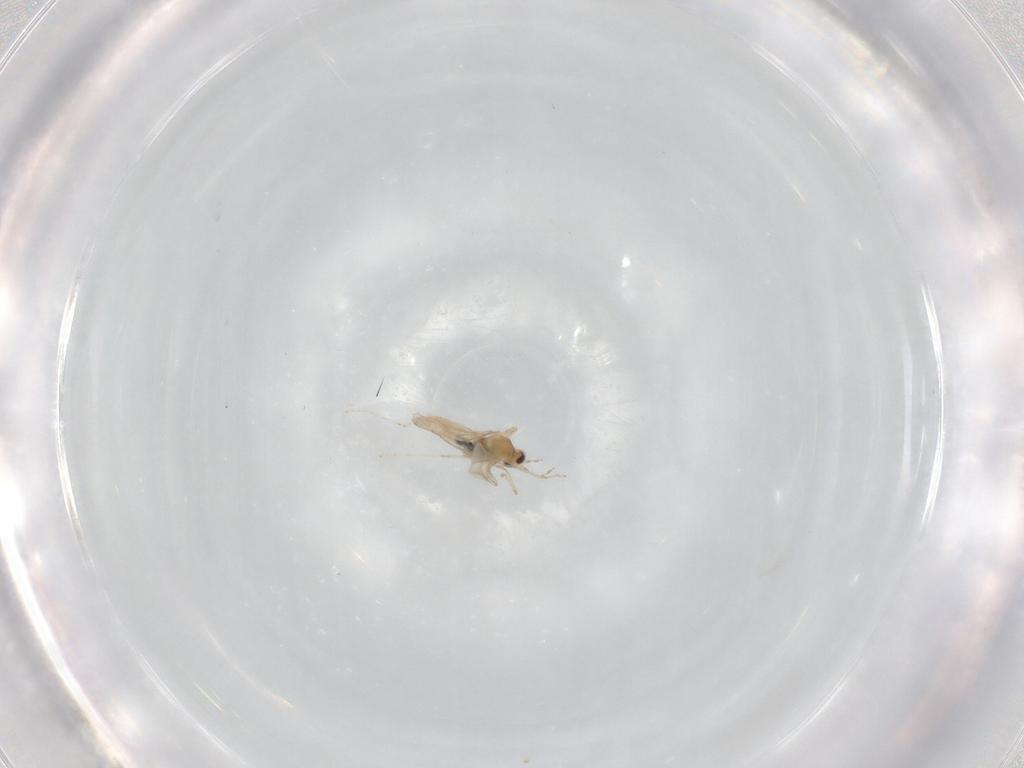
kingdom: Animalia
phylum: Arthropoda
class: Insecta
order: Diptera
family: Cecidomyiidae
